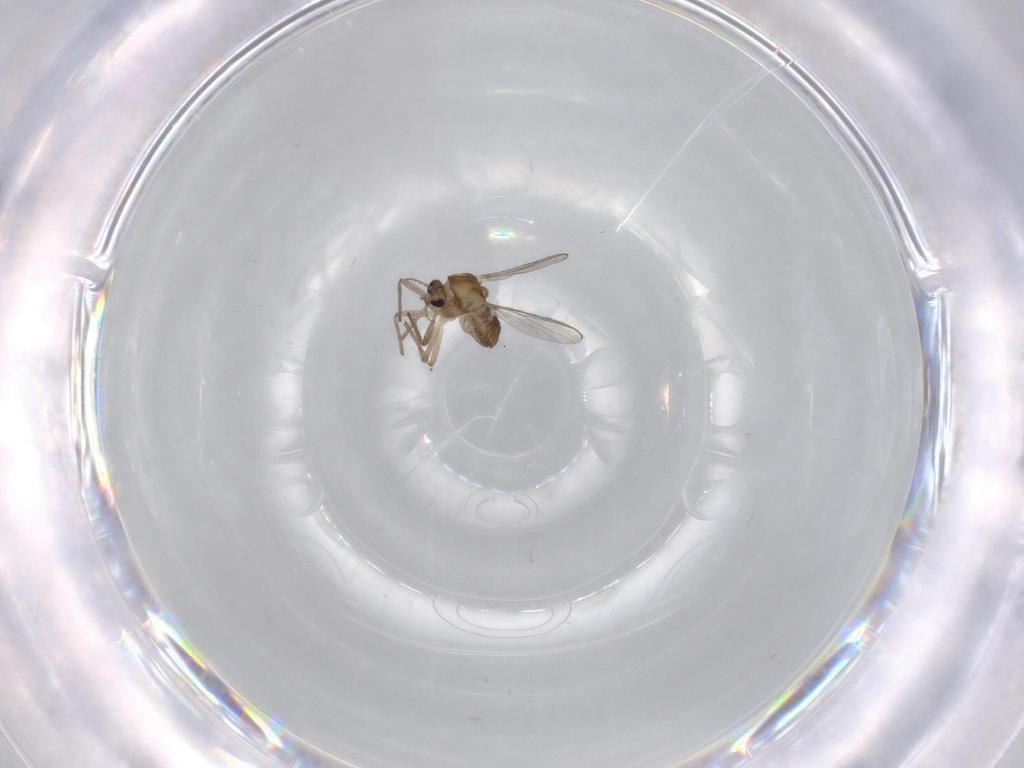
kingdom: Animalia
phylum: Arthropoda
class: Insecta
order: Diptera
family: Chironomidae
